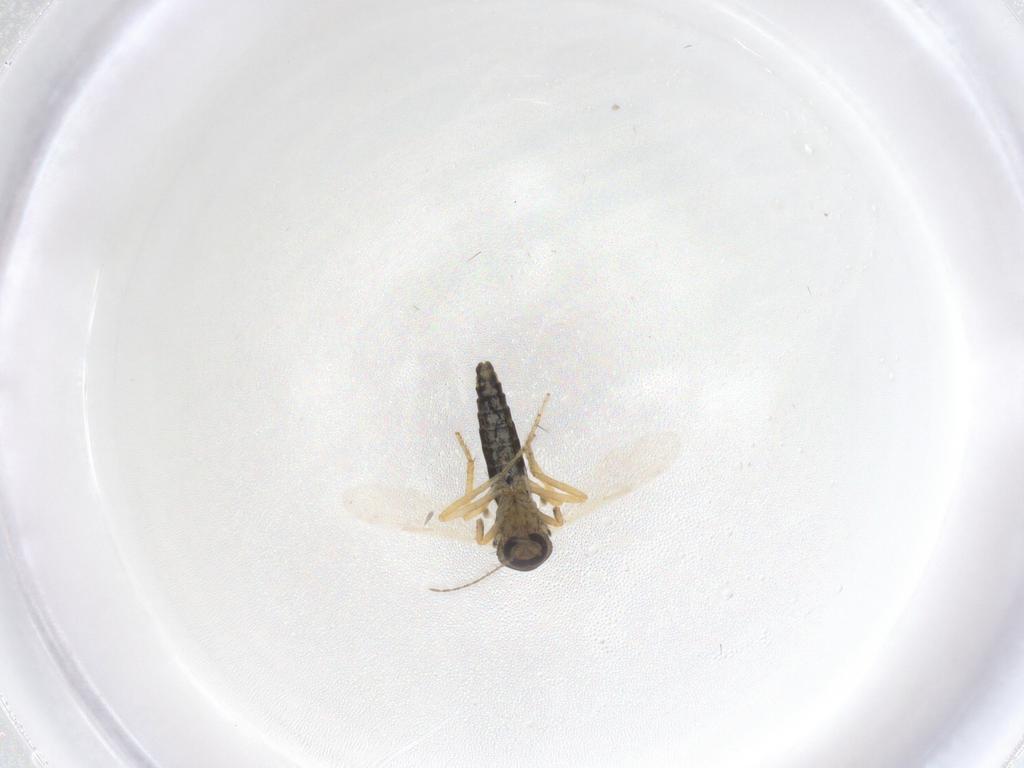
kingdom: Animalia
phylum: Arthropoda
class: Insecta
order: Diptera
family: Ceratopogonidae
